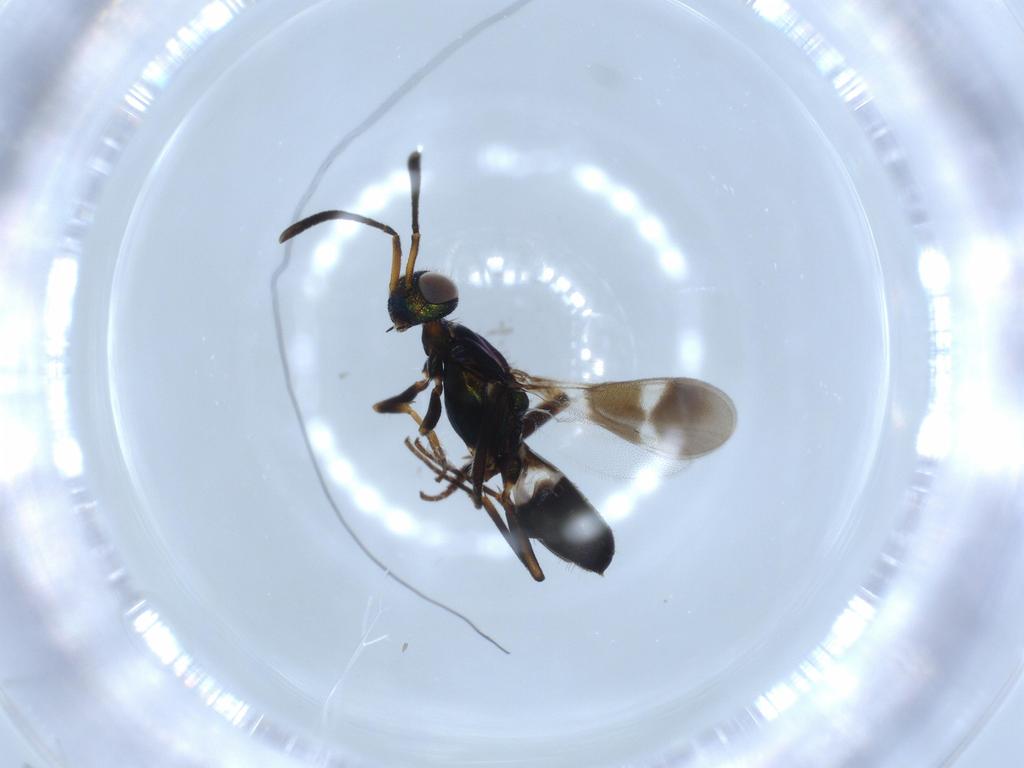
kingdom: Animalia
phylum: Arthropoda
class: Insecta
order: Hymenoptera
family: Eupelmidae
